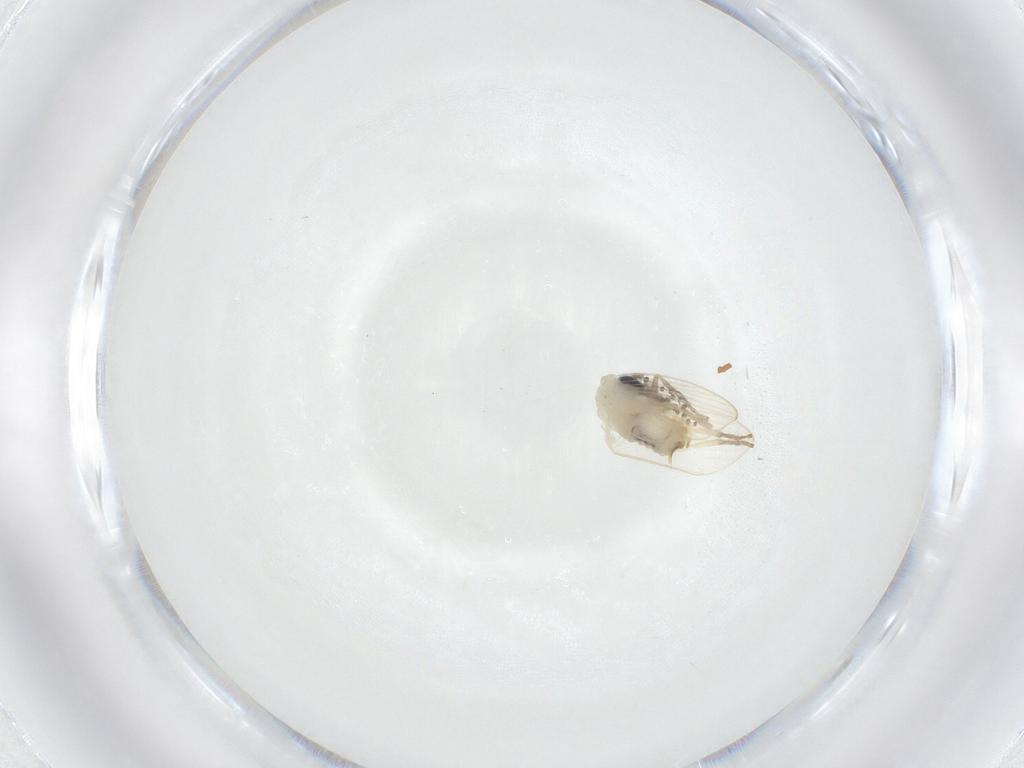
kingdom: Animalia
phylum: Arthropoda
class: Insecta
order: Diptera
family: Psychodidae
